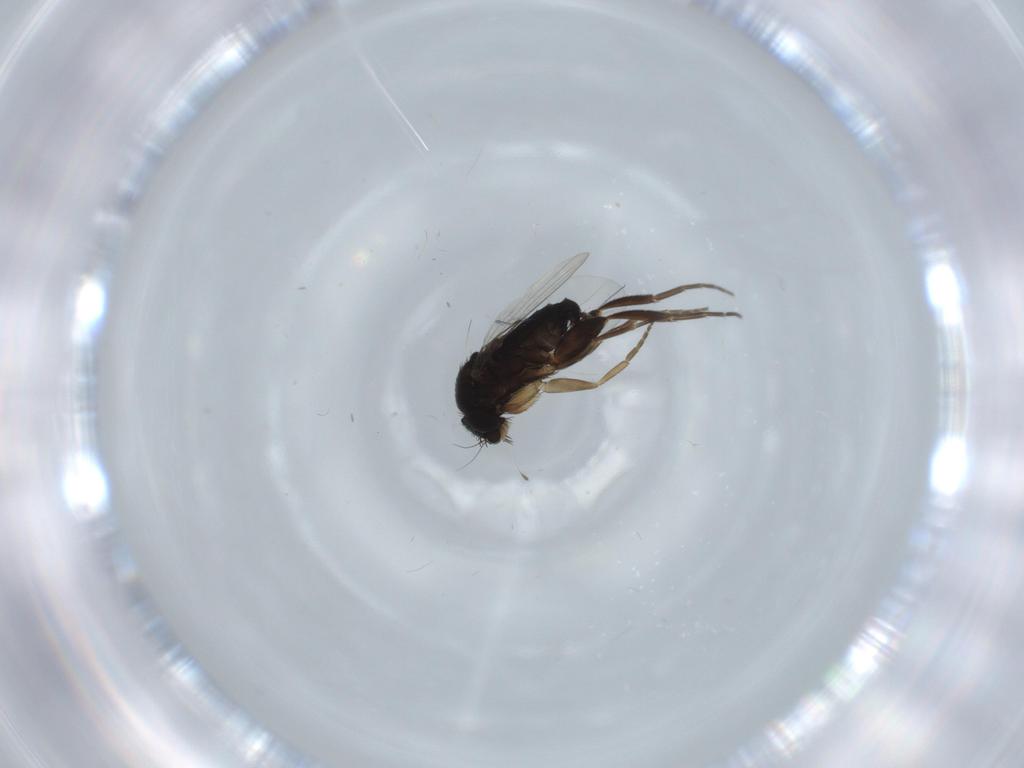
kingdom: Animalia
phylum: Arthropoda
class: Insecta
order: Diptera
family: Phoridae
